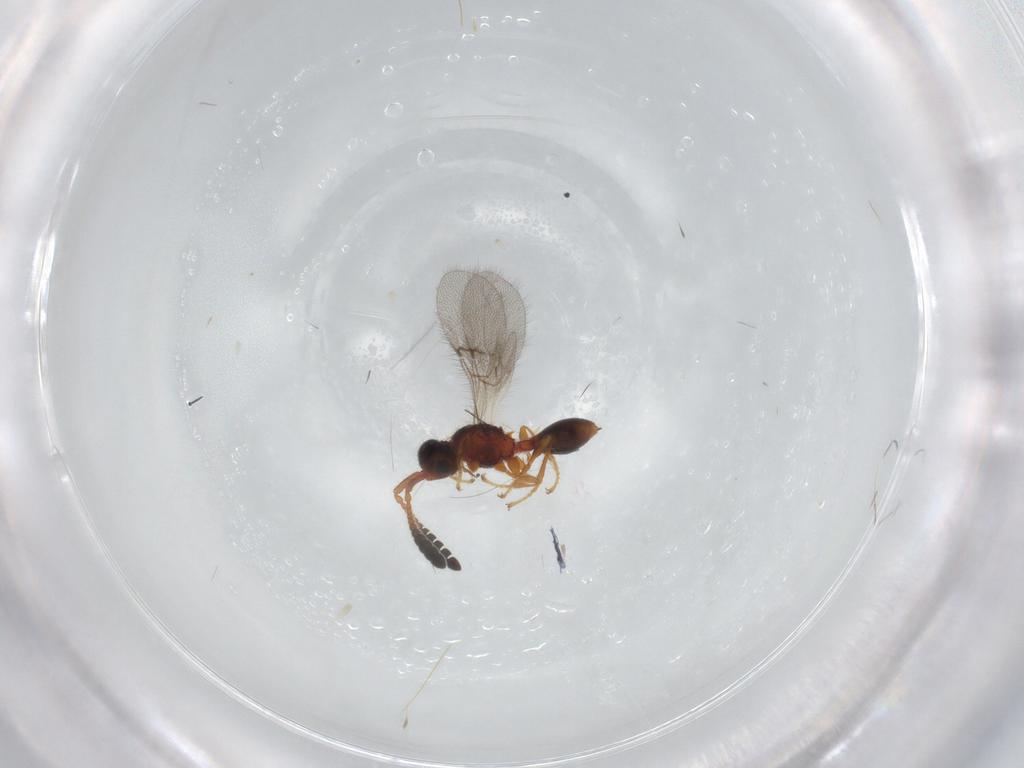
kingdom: Animalia
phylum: Arthropoda
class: Insecta
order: Hymenoptera
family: Diapriidae
